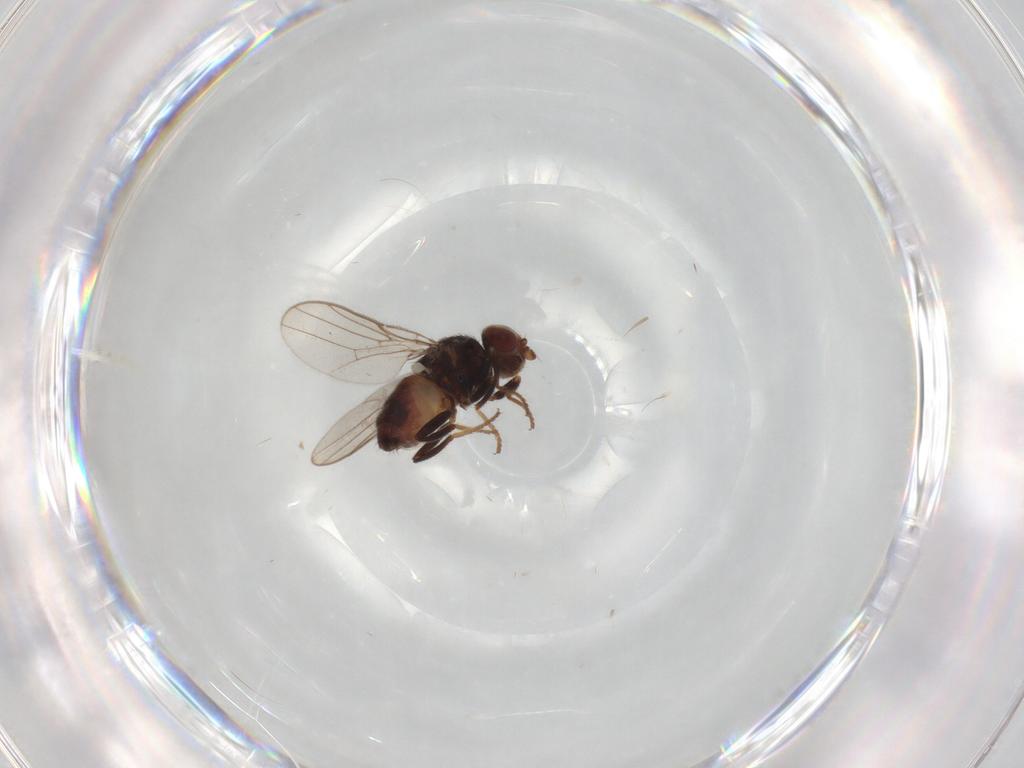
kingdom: Animalia
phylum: Arthropoda
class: Insecta
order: Diptera
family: Chloropidae
